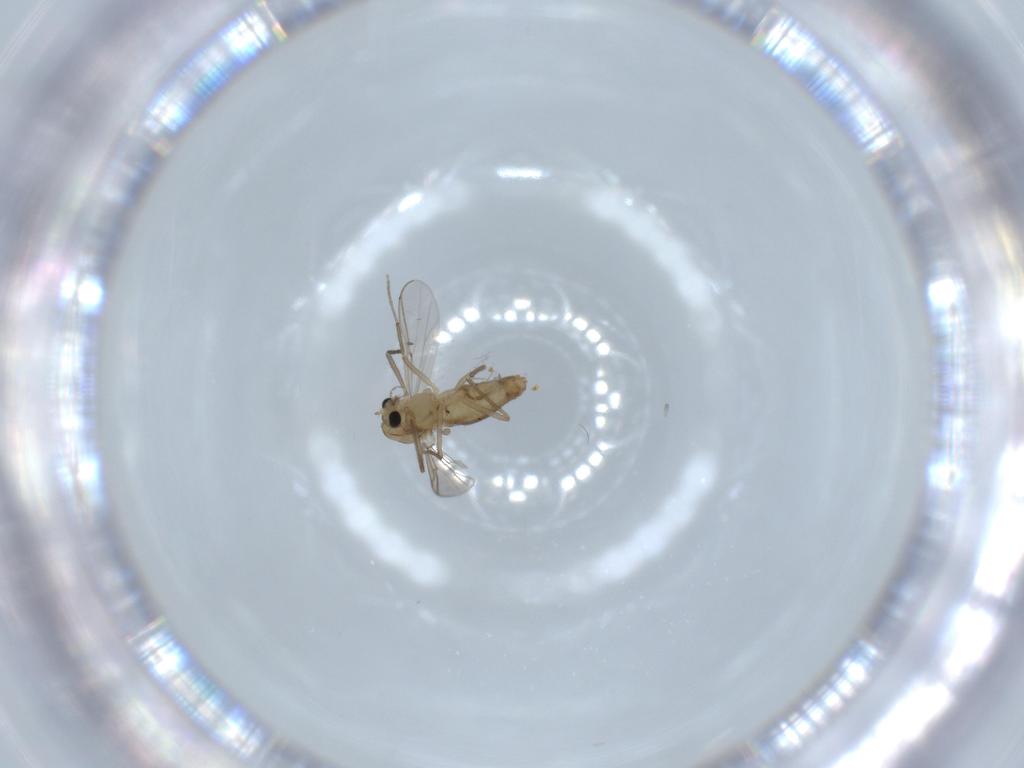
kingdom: Animalia
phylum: Arthropoda
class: Insecta
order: Diptera
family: Chironomidae
